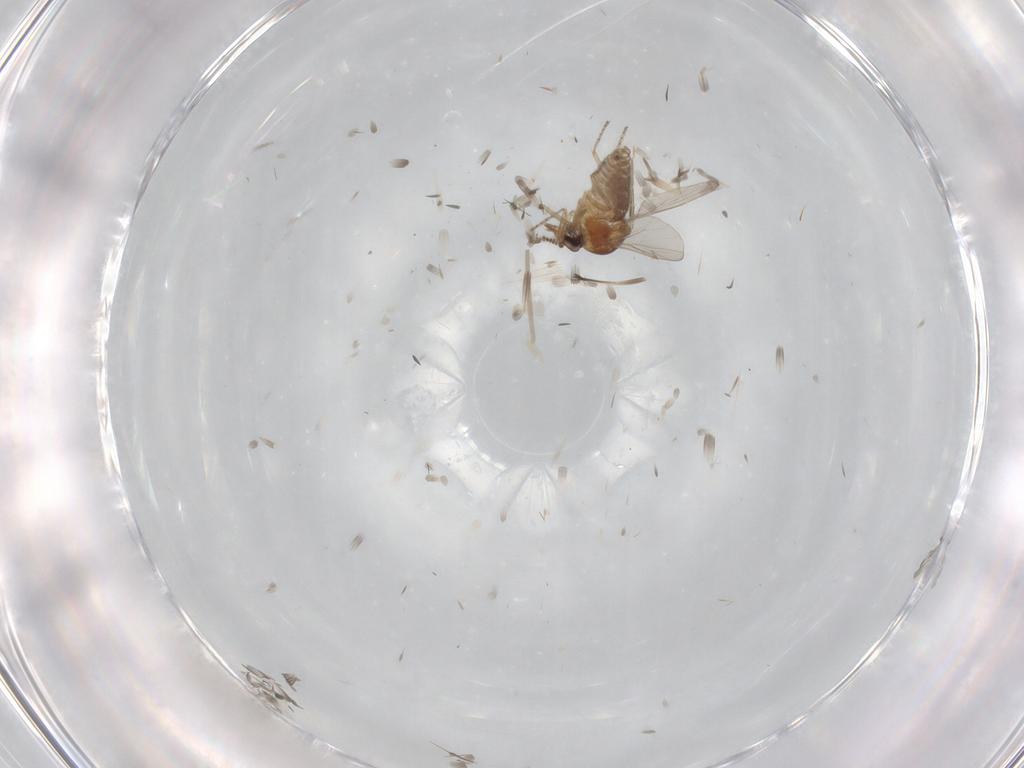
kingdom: Animalia
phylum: Arthropoda
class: Insecta
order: Diptera
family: Ceratopogonidae
